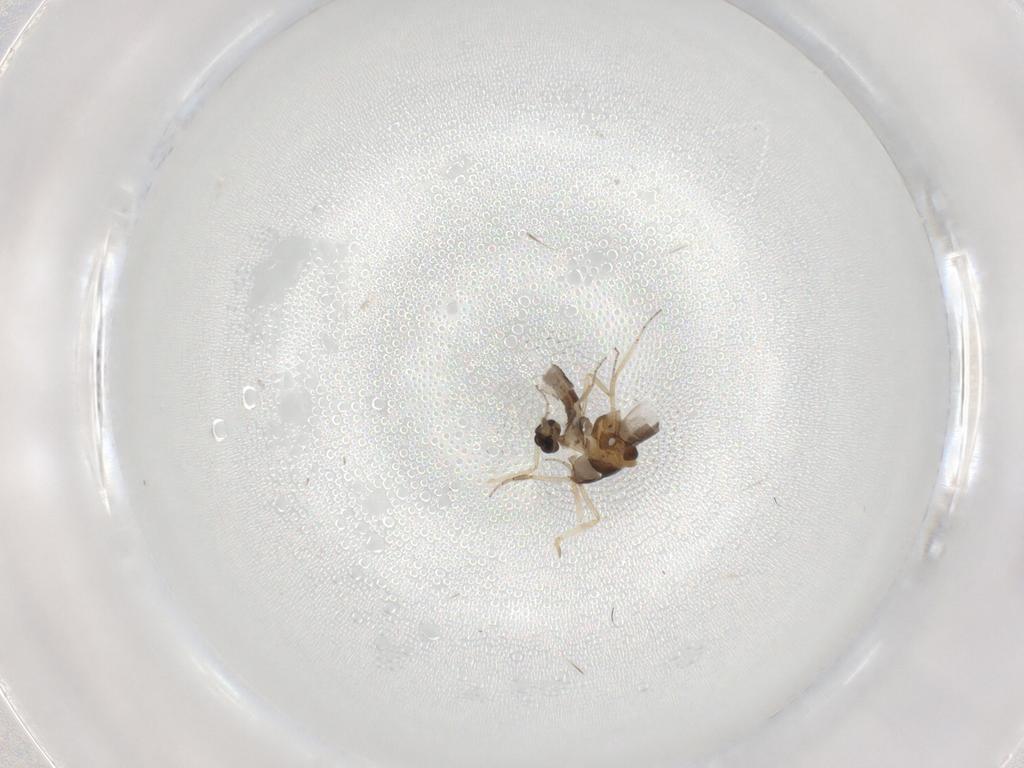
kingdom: Animalia
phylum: Arthropoda
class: Insecta
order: Diptera
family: Ceratopogonidae
